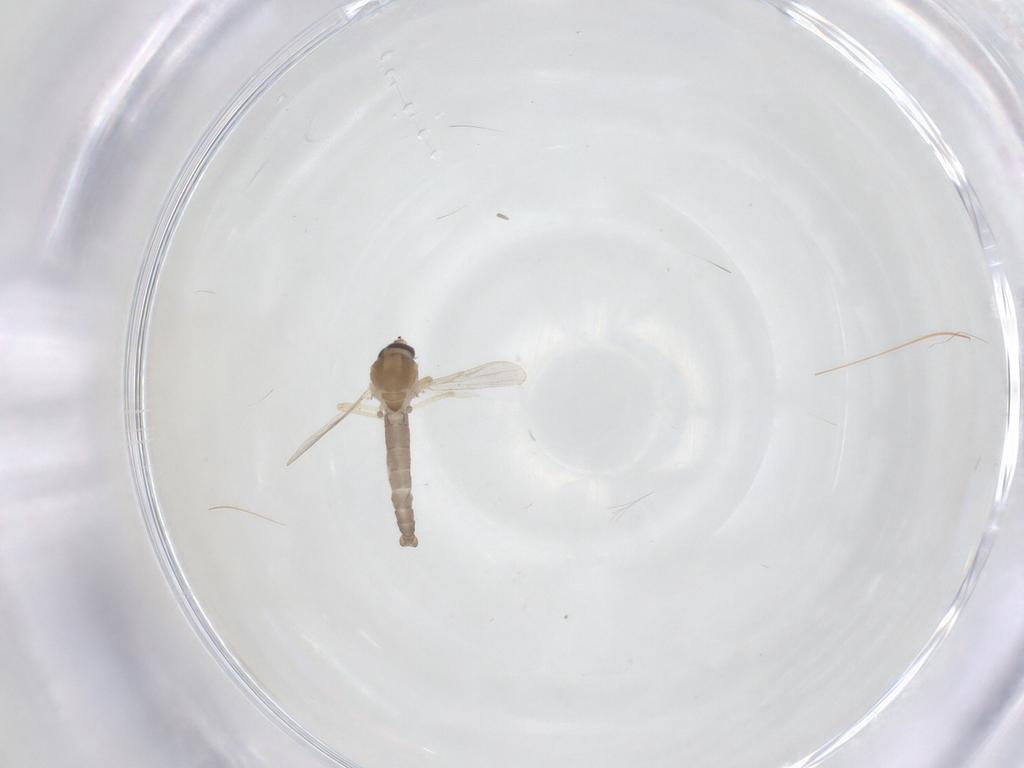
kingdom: Animalia
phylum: Arthropoda
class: Insecta
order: Diptera
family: Ceratopogonidae
